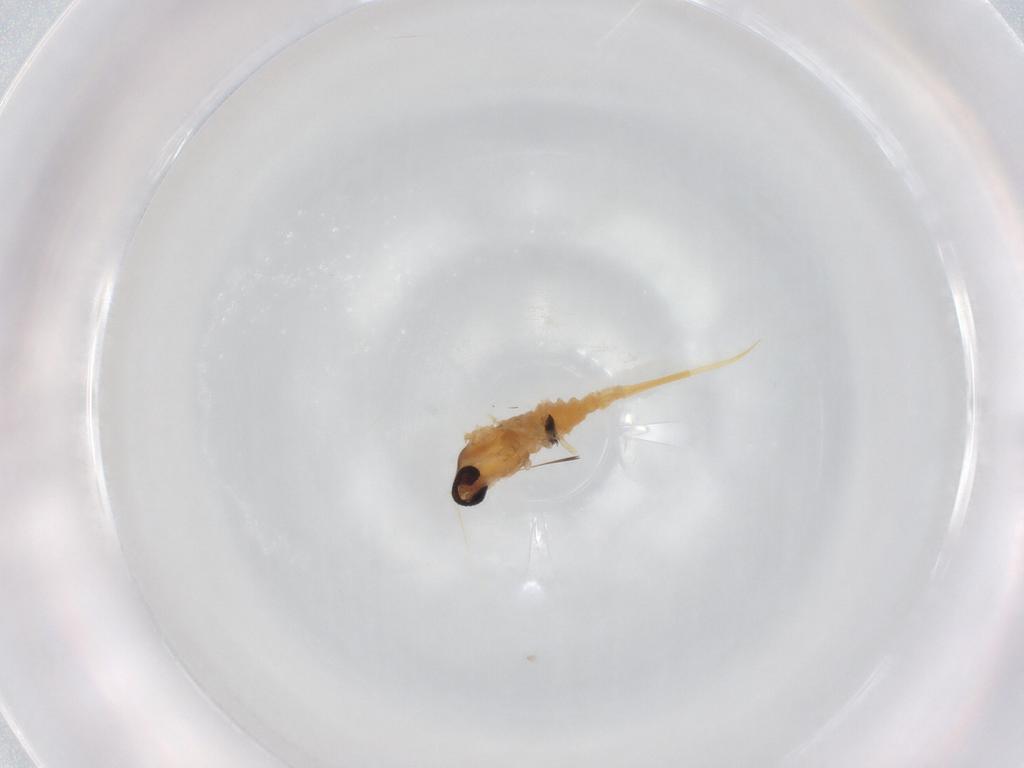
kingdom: Animalia
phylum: Arthropoda
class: Insecta
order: Diptera
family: Cecidomyiidae
